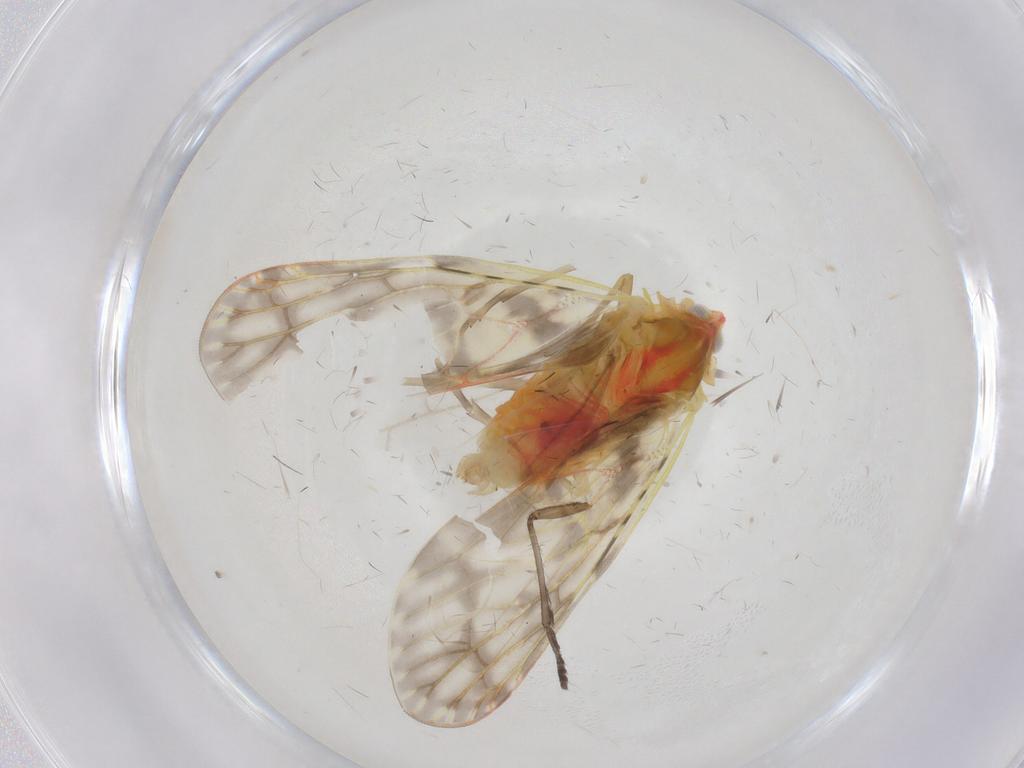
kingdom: Animalia
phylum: Arthropoda
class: Insecta
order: Hemiptera
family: Derbidae
